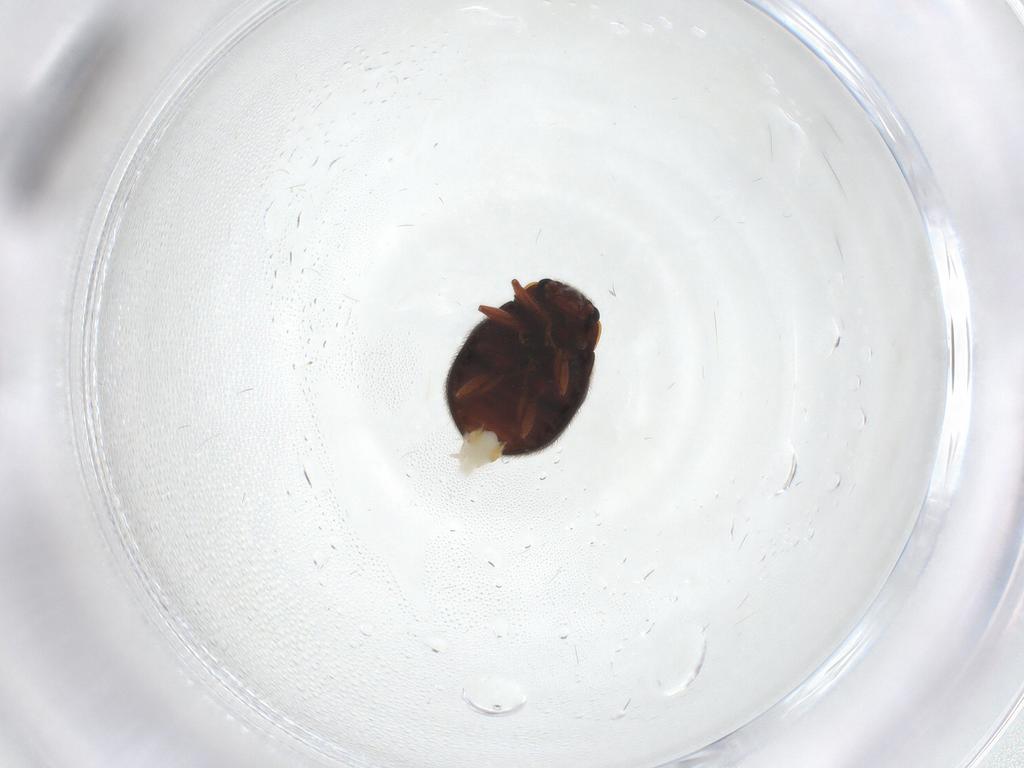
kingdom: Animalia
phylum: Arthropoda
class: Insecta
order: Coleoptera
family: Sphindidae
